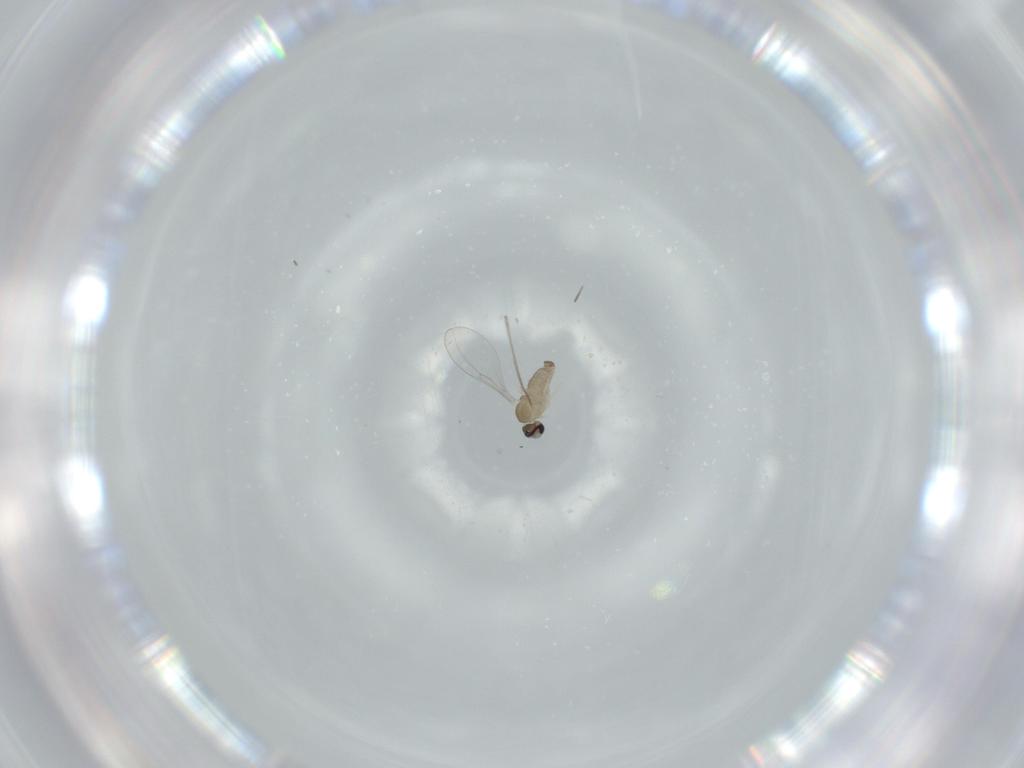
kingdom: Animalia
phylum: Arthropoda
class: Insecta
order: Diptera
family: Cecidomyiidae
